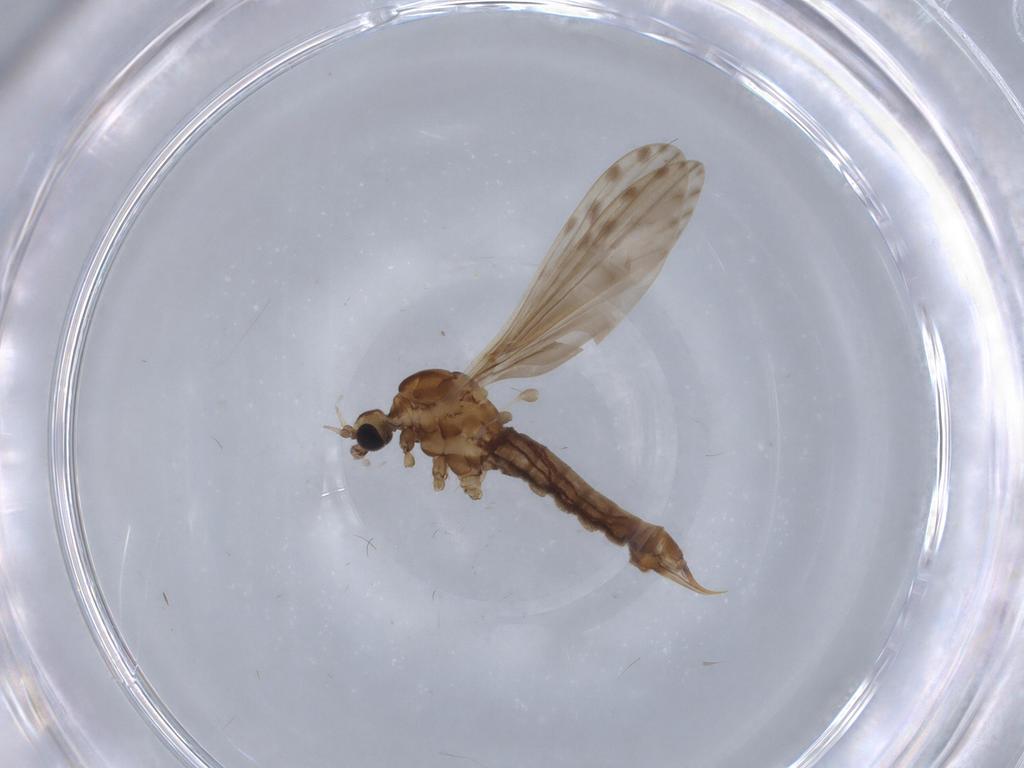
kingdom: Animalia
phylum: Arthropoda
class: Insecta
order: Diptera
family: Limoniidae
